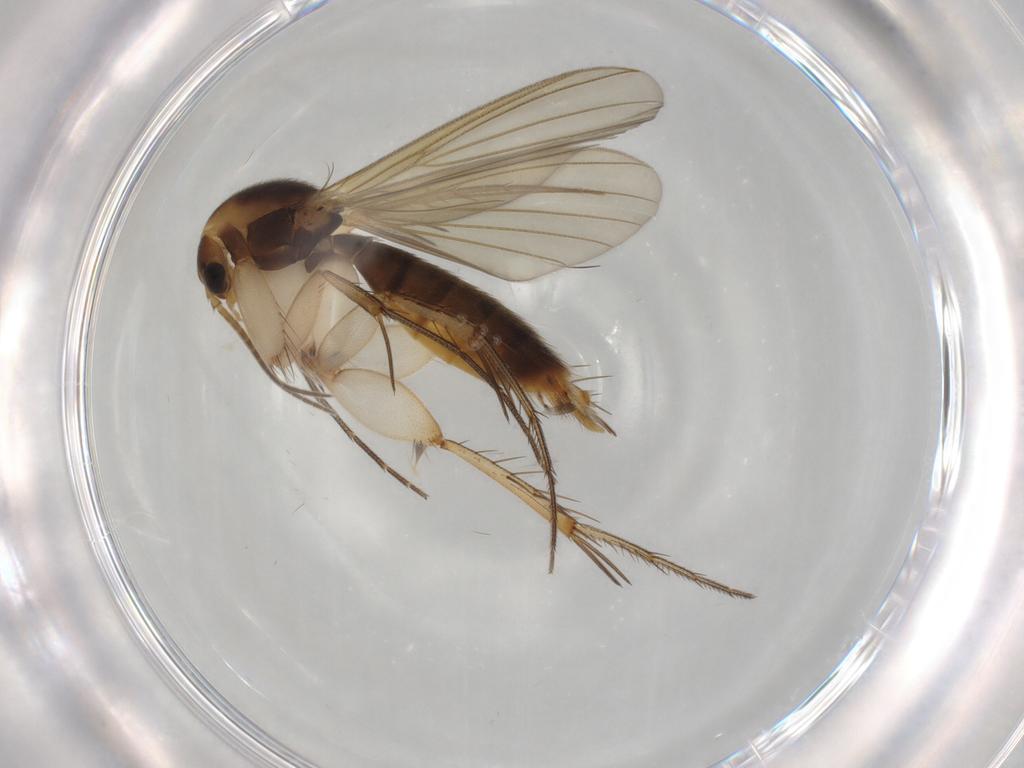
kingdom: Animalia
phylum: Arthropoda
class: Insecta
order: Diptera
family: Mycetophilidae
